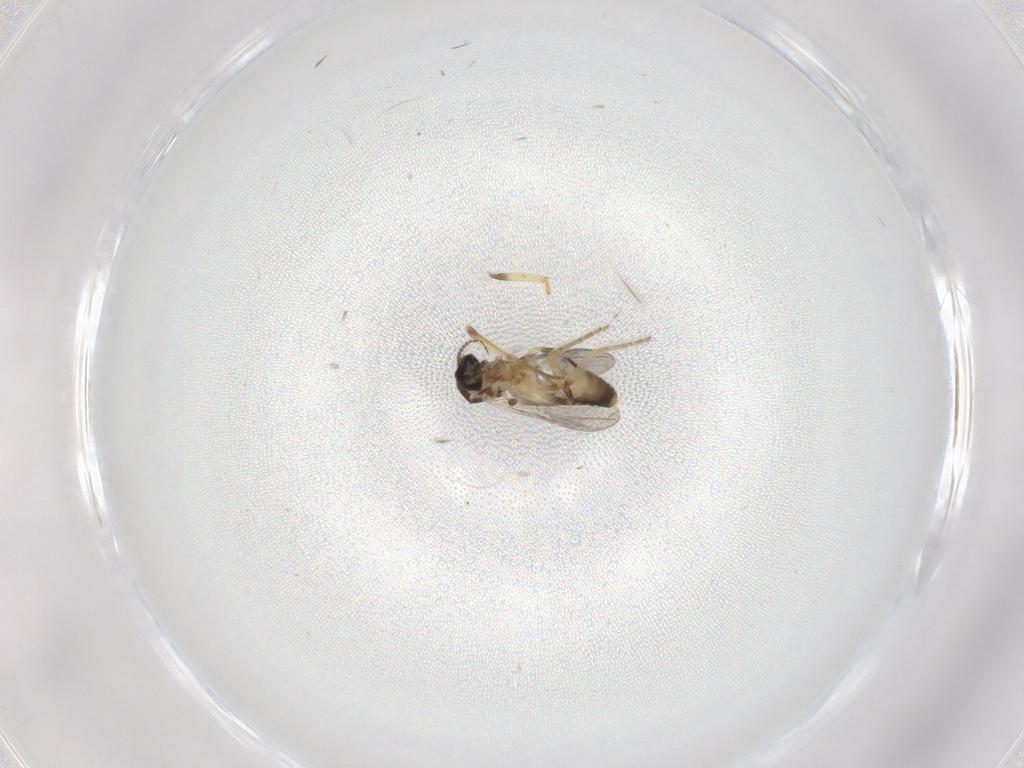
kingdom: Animalia
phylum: Arthropoda
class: Insecta
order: Diptera
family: Ceratopogonidae
